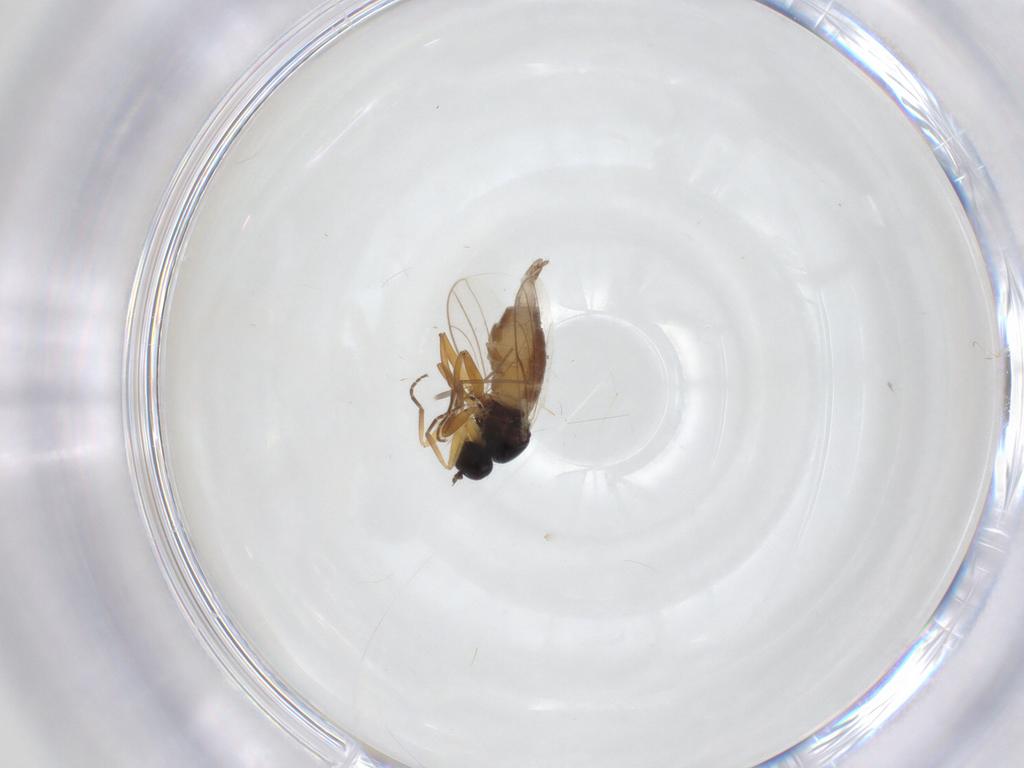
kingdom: Animalia
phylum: Arthropoda
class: Insecta
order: Diptera
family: Hybotidae
